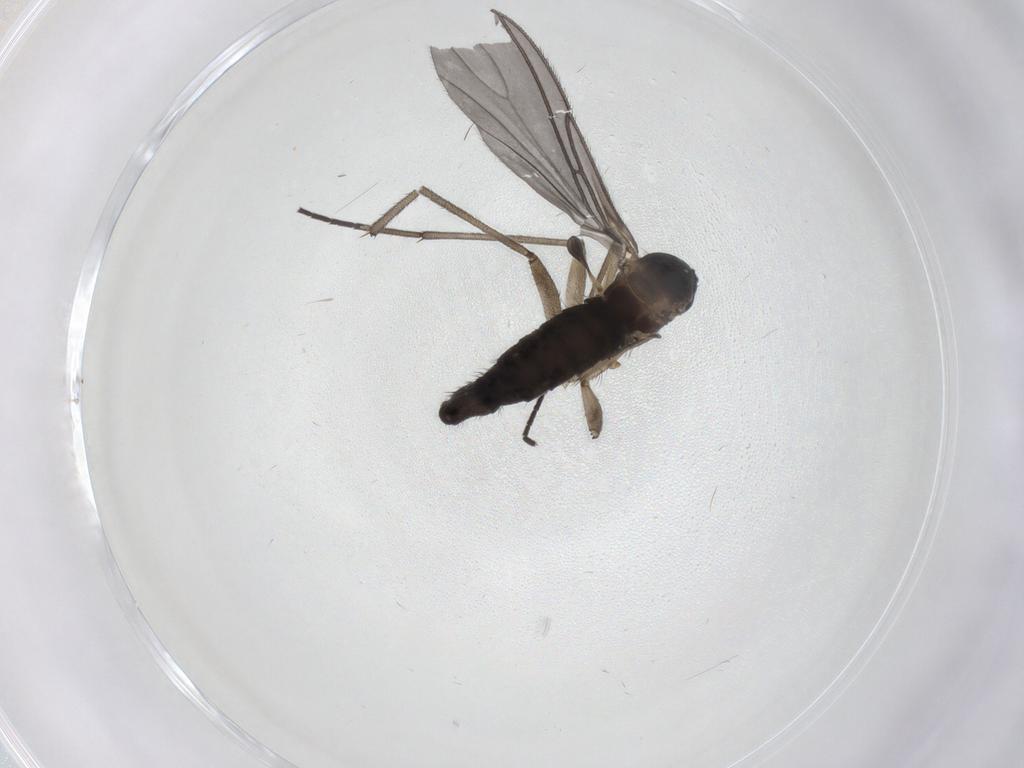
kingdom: Animalia
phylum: Arthropoda
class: Insecta
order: Diptera
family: Sciaridae
